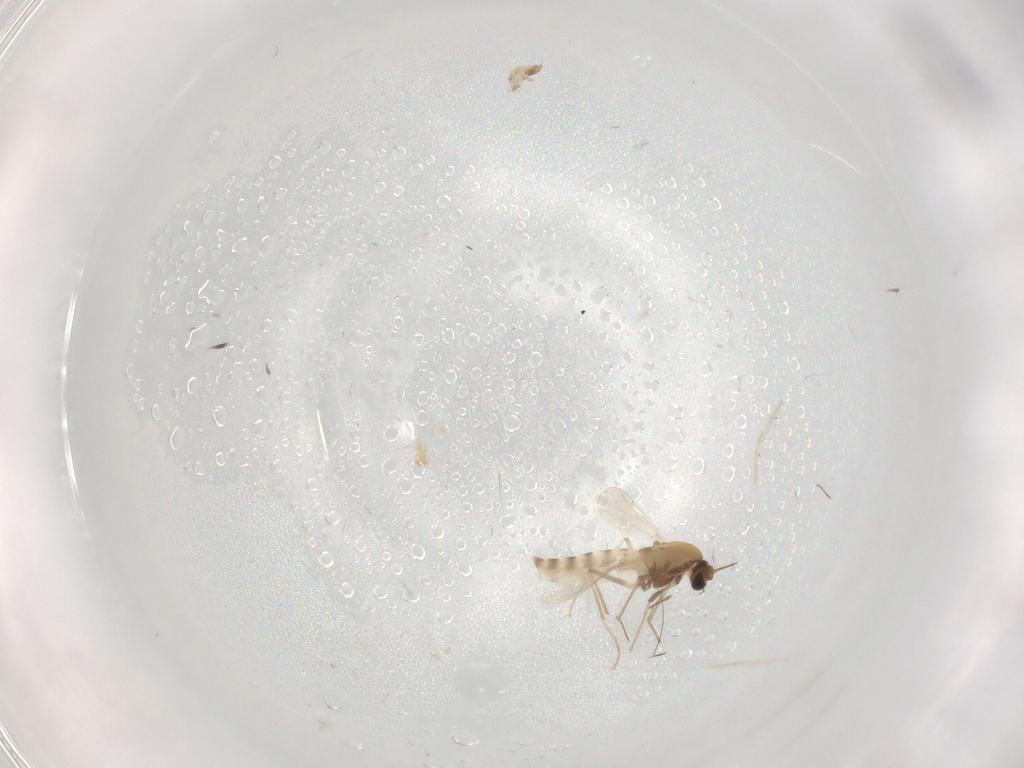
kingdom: Animalia
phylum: Arthropoda
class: Insecta
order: Diptera
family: Chironomidae
